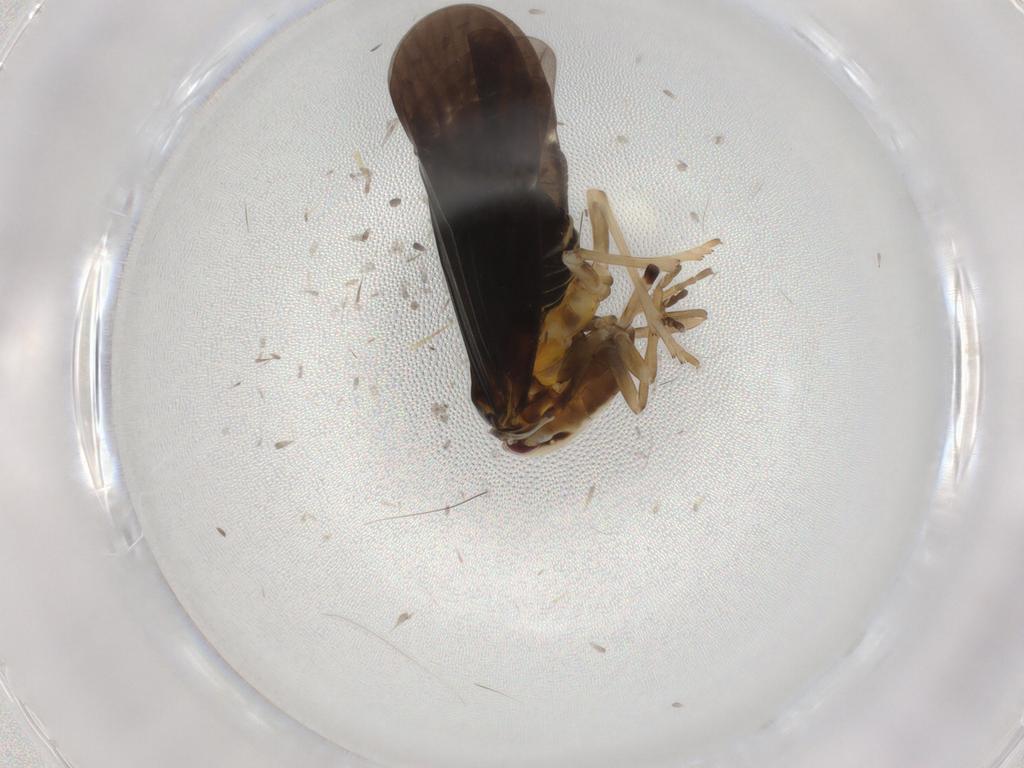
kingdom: Animalia
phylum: Arthropoda
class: Insecta
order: Hemiptera
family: Derbidae
